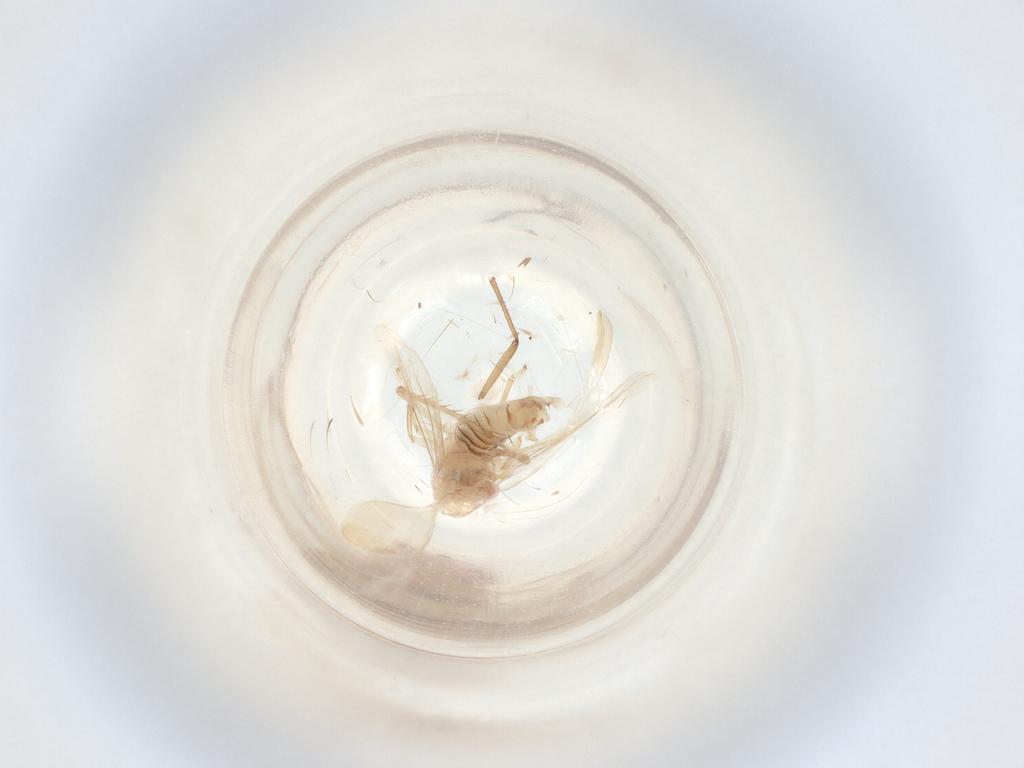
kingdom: Animalia
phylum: Arthropoda
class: Insecta
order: Hemiptera
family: Cicadellidae
